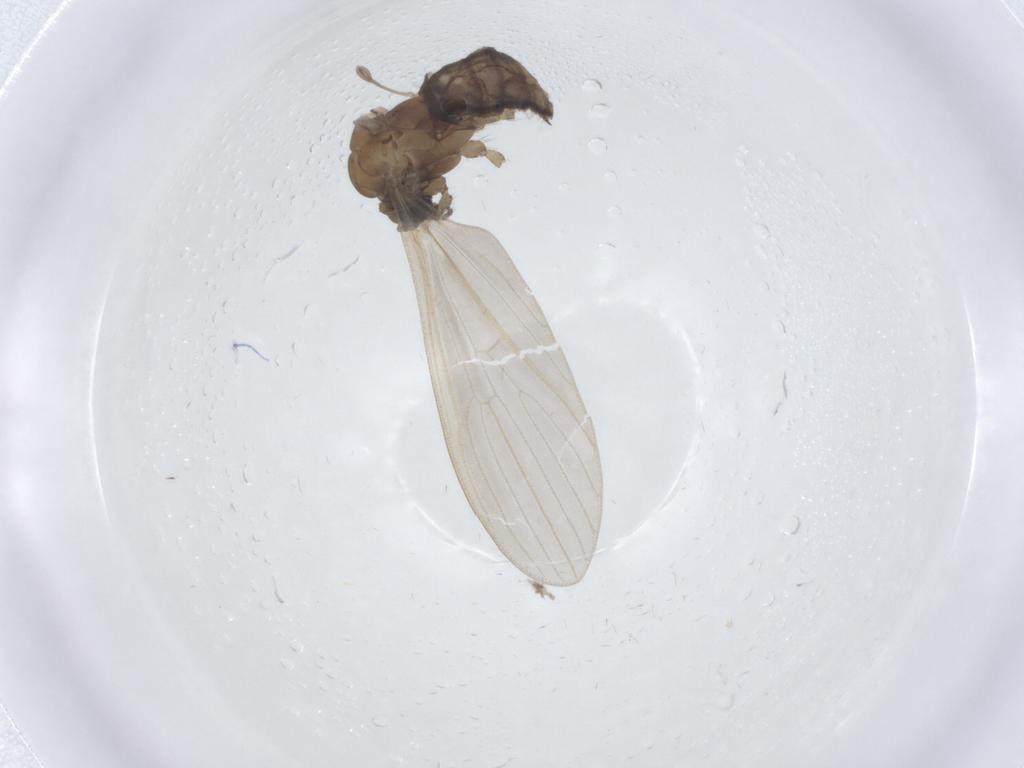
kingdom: Animalia
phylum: Arthropoda
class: Insecta
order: Diptera
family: Limoniidae
